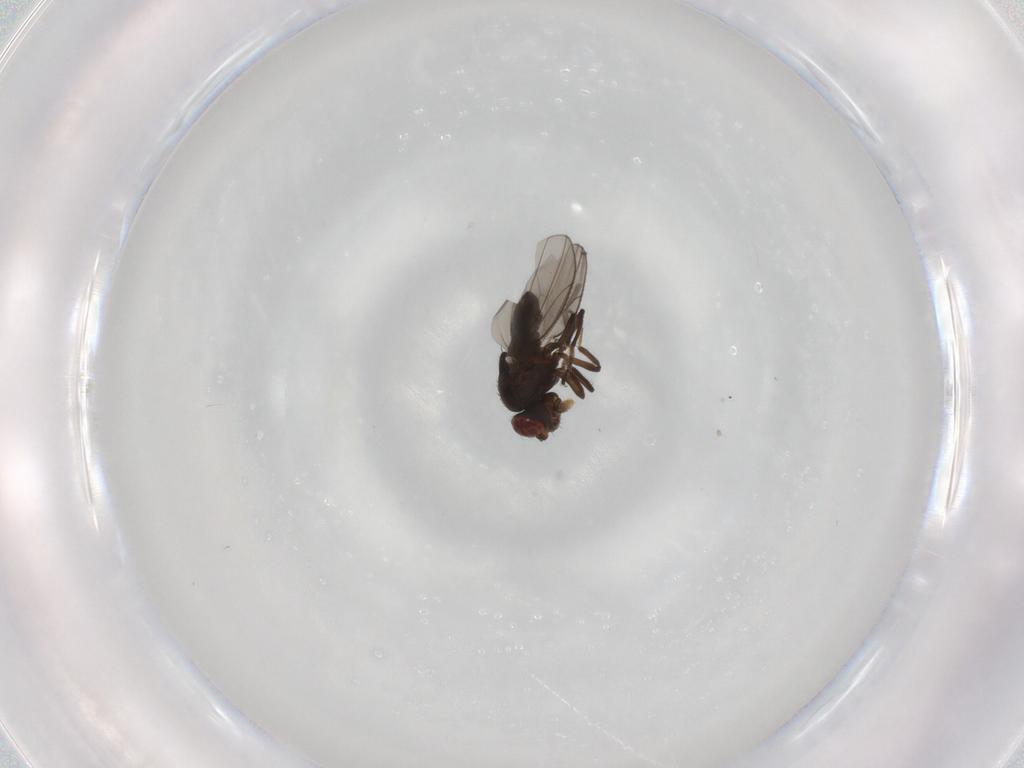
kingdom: Animalia
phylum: Arthropoda
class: Insecta
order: Diptera
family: Ephydridae
